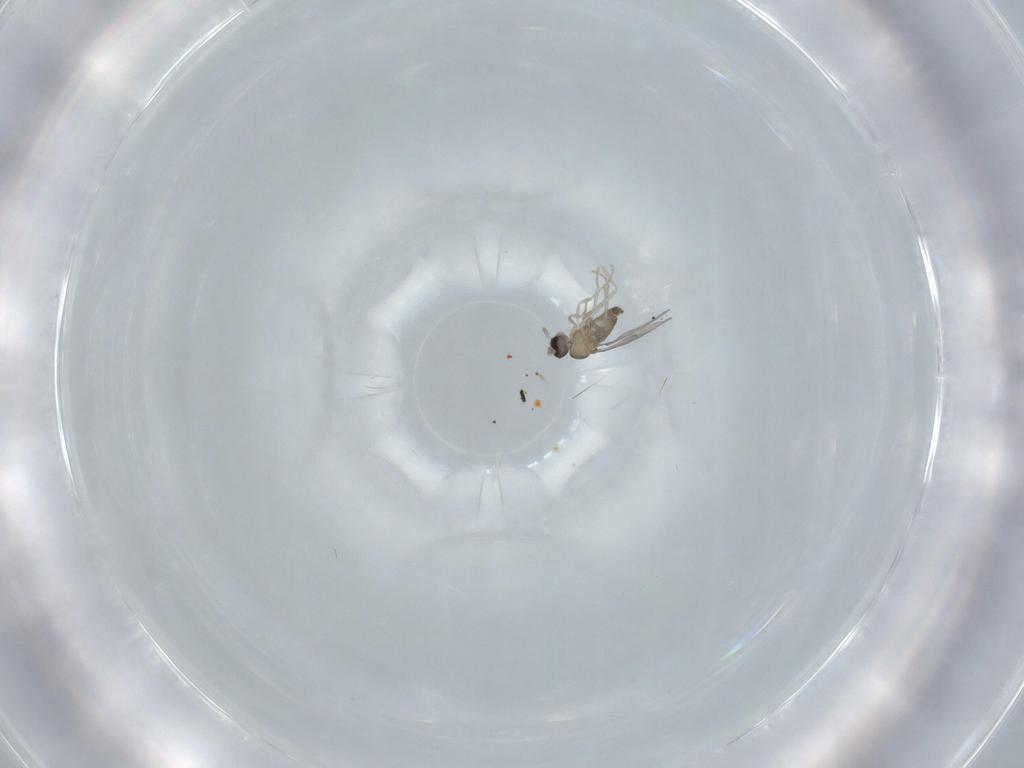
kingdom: Animalia
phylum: Arthropoda
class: Insecta
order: Diptera
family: Cecidomyiidae
